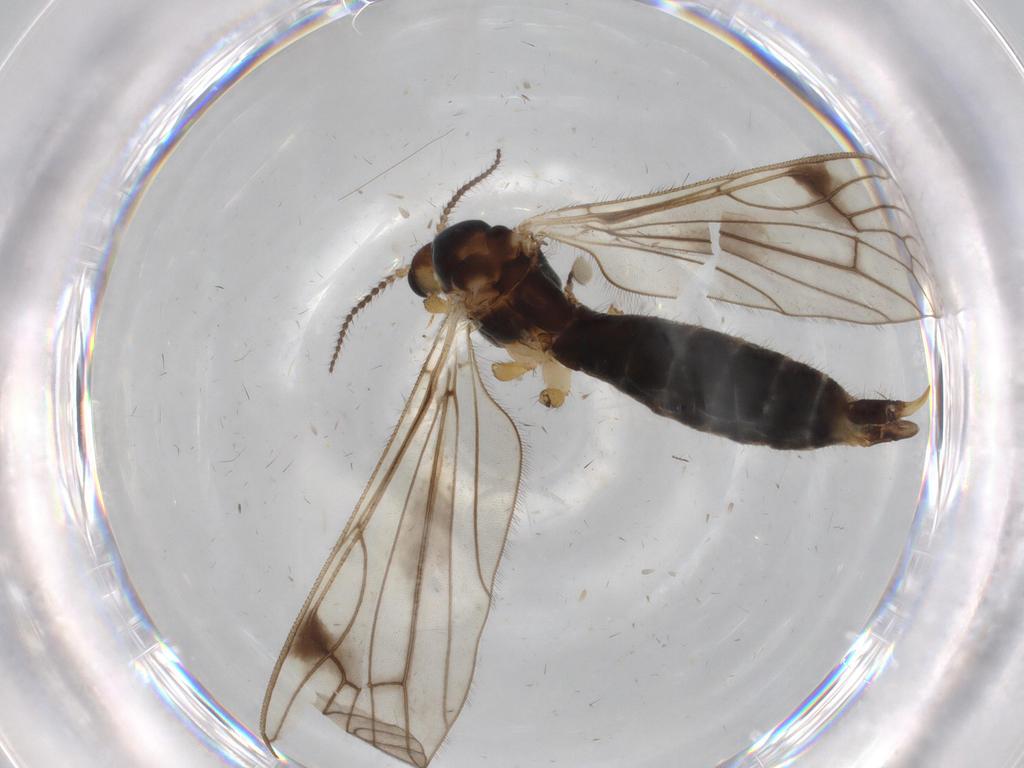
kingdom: Animalia
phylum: Arthropoda
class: Insecta
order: Diptera
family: Limoniidae
